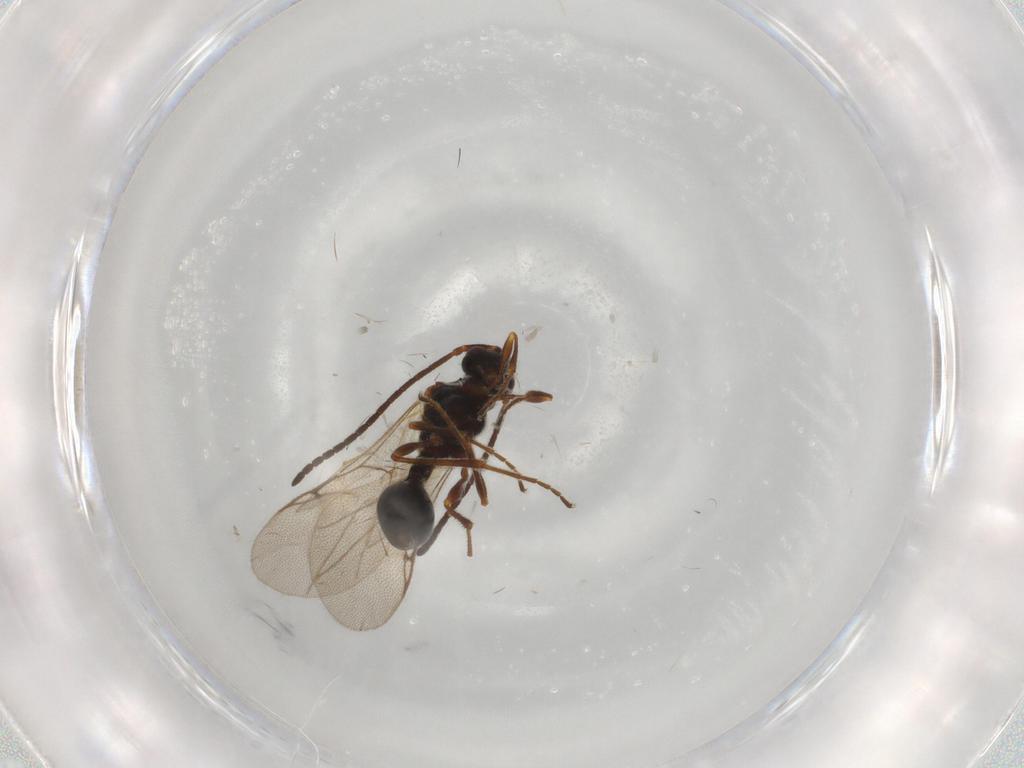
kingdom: Animalia
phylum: Arthropoda
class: Insecta
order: Hymenoptera
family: Diapriidae
